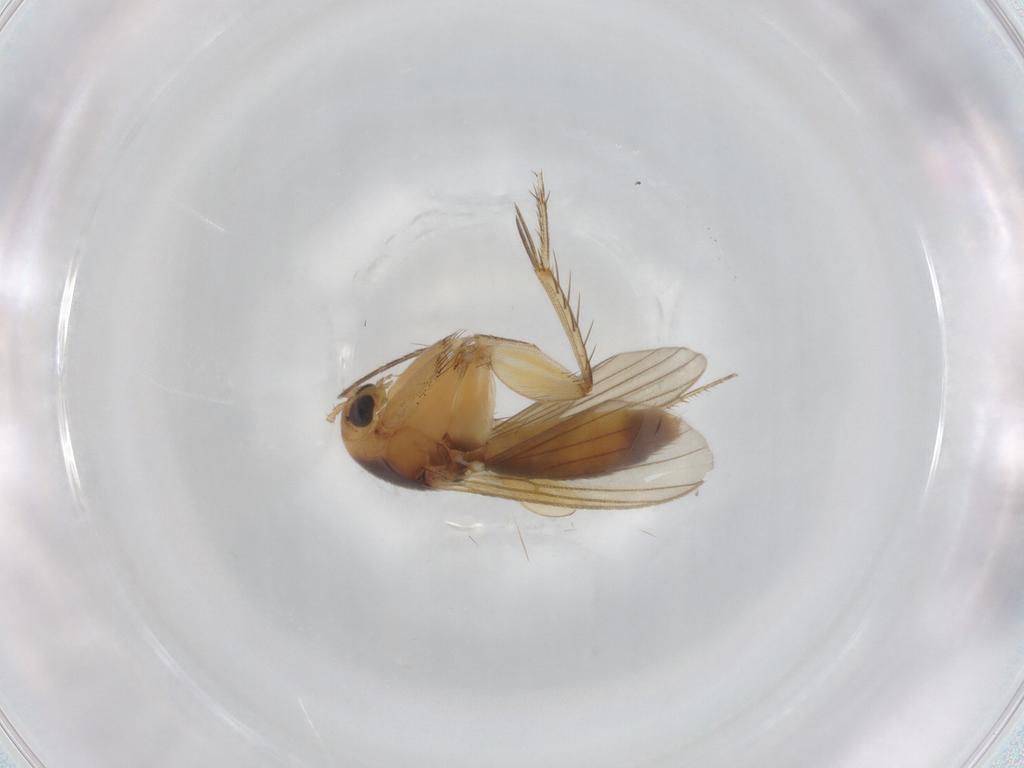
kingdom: Animalia
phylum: Arthropoda
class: Insecta
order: Diptera
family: Mycetophilidae
